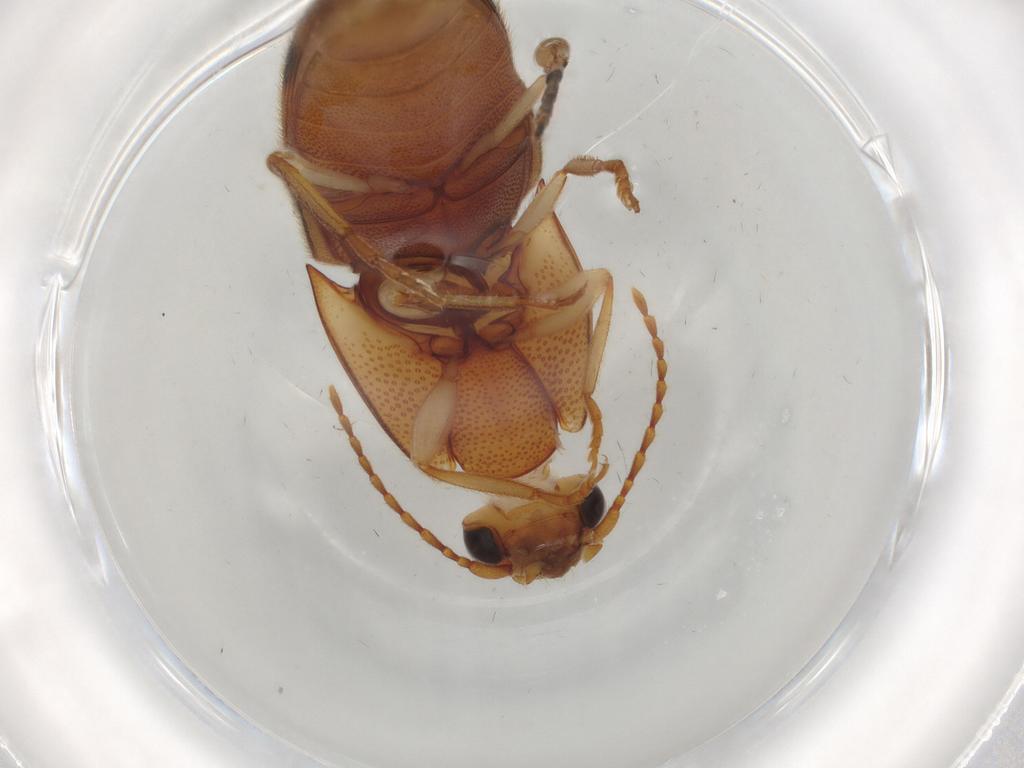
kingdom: Animalia
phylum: Arthropoda
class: Insecta
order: Coleoptera
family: Elateridae
